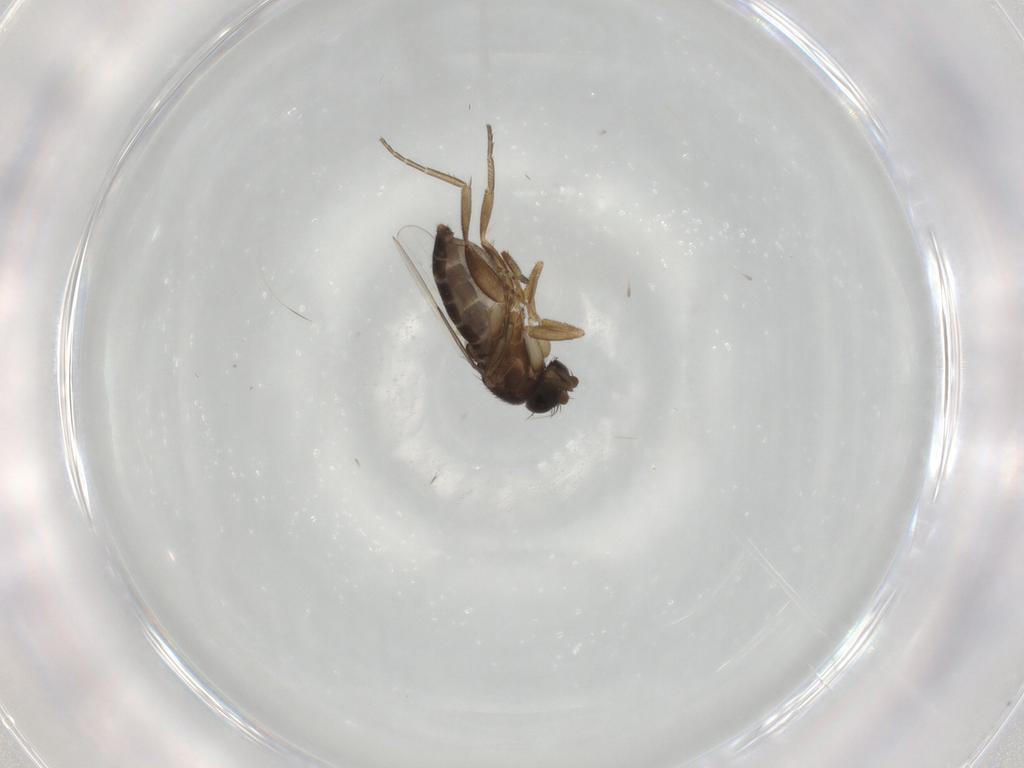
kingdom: Animalia
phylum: Arthropoda
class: Insecta
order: Diptera
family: Phoridae
